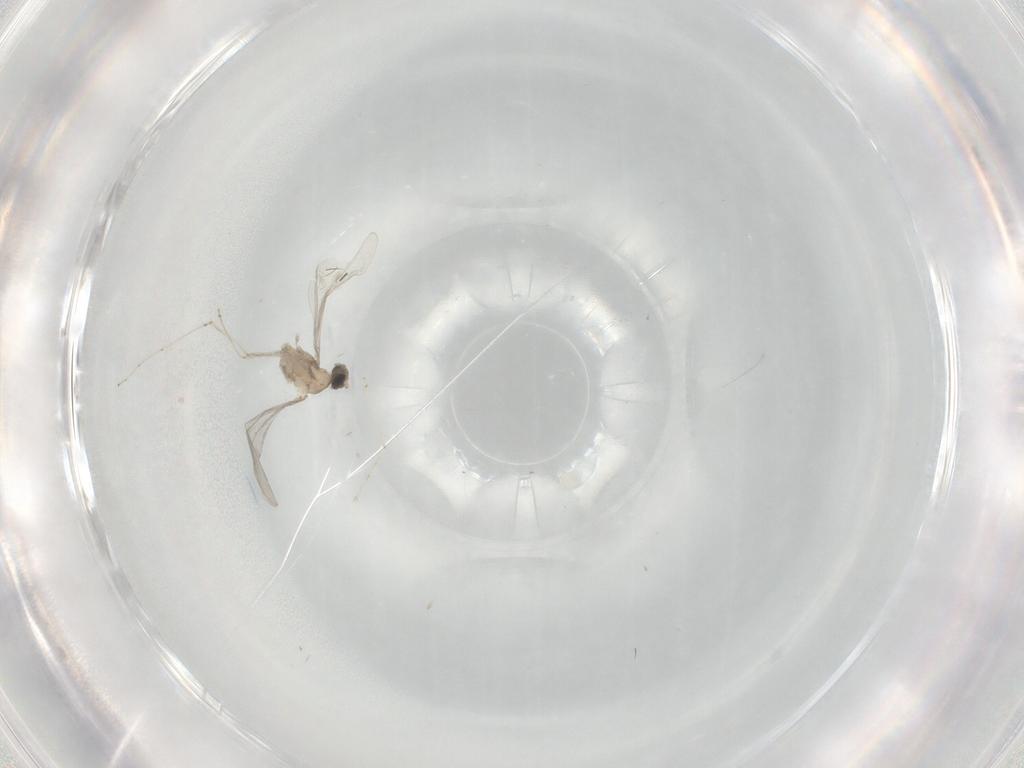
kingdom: Animalia
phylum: Arthropoda
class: Insecta
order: Diptera
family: Cecidomyiidae
